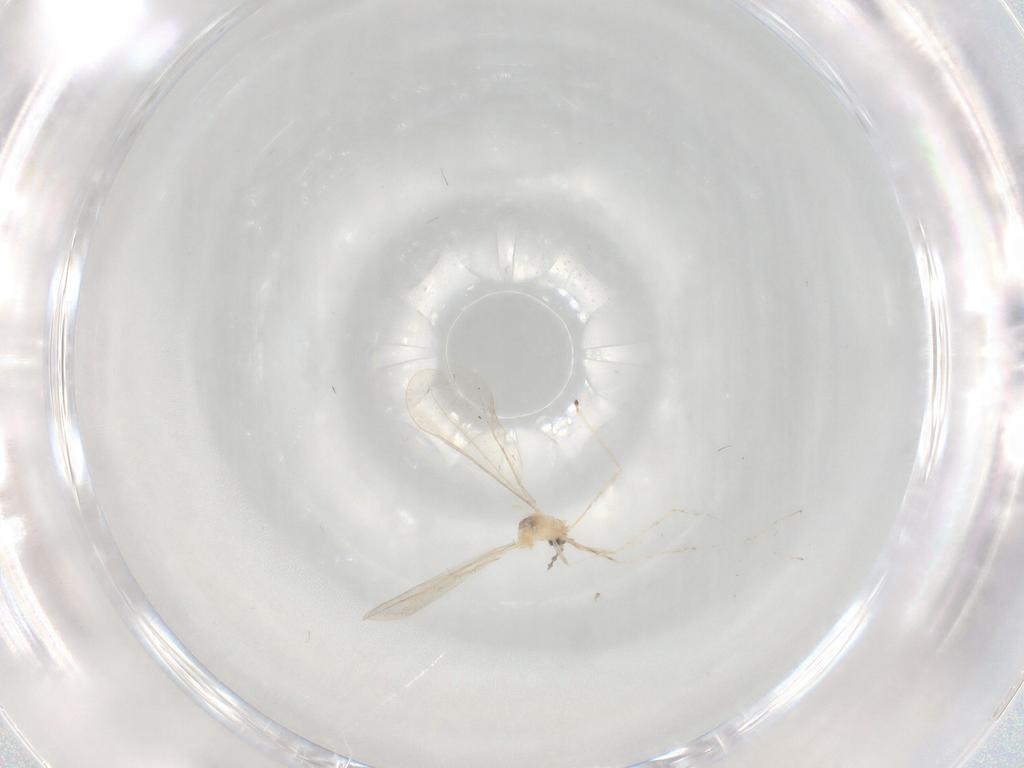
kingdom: Animalia
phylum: Arthropoda
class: Insecta
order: Diptera
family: Cecidomyiidae
